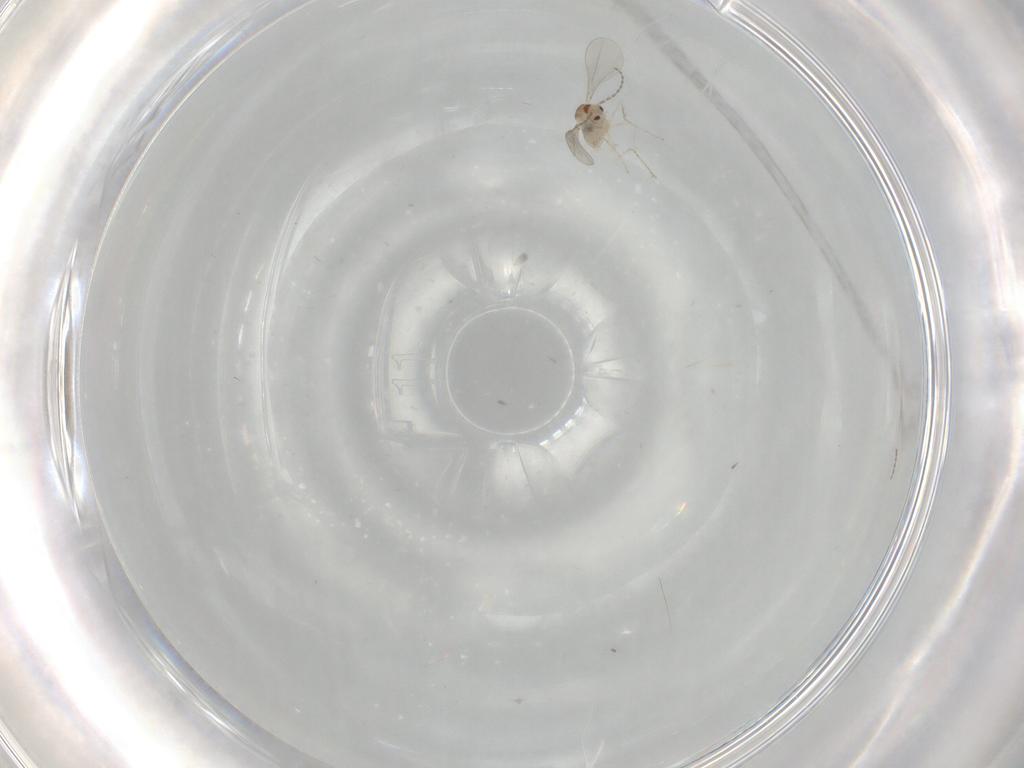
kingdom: Animalia
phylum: Arthropoda
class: Insecta
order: Diptera
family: Cecidomyiidae
